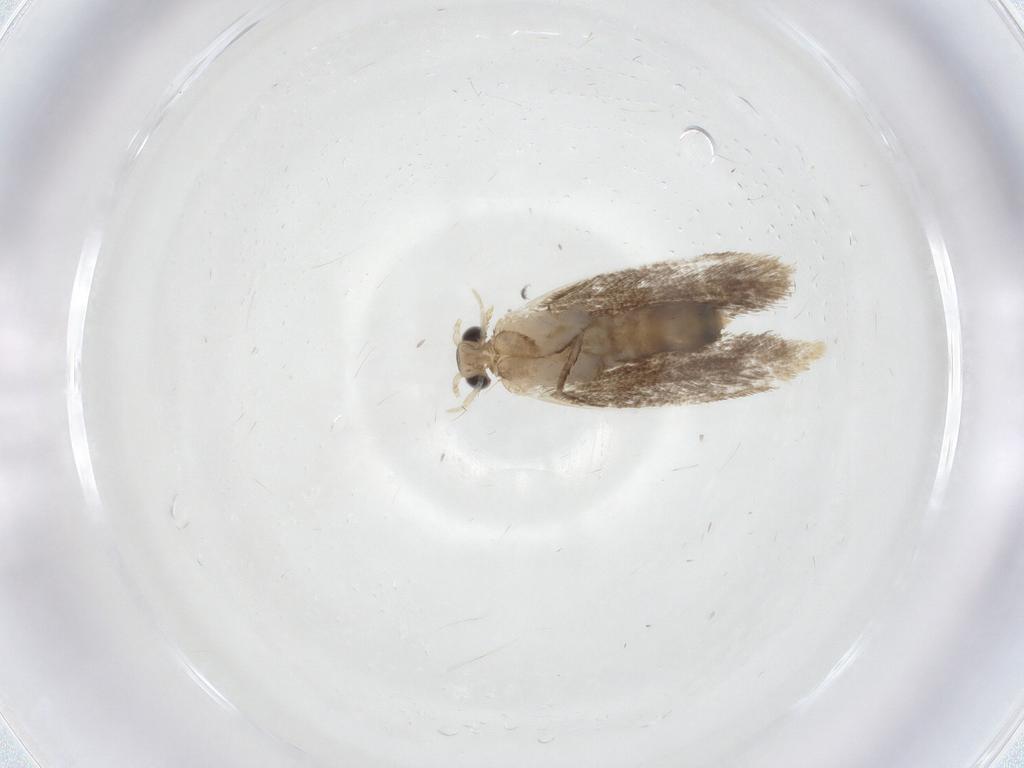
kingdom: Animalia
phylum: Arthropoda
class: Insecta
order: Lepidoptera
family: Dryadaulidae
